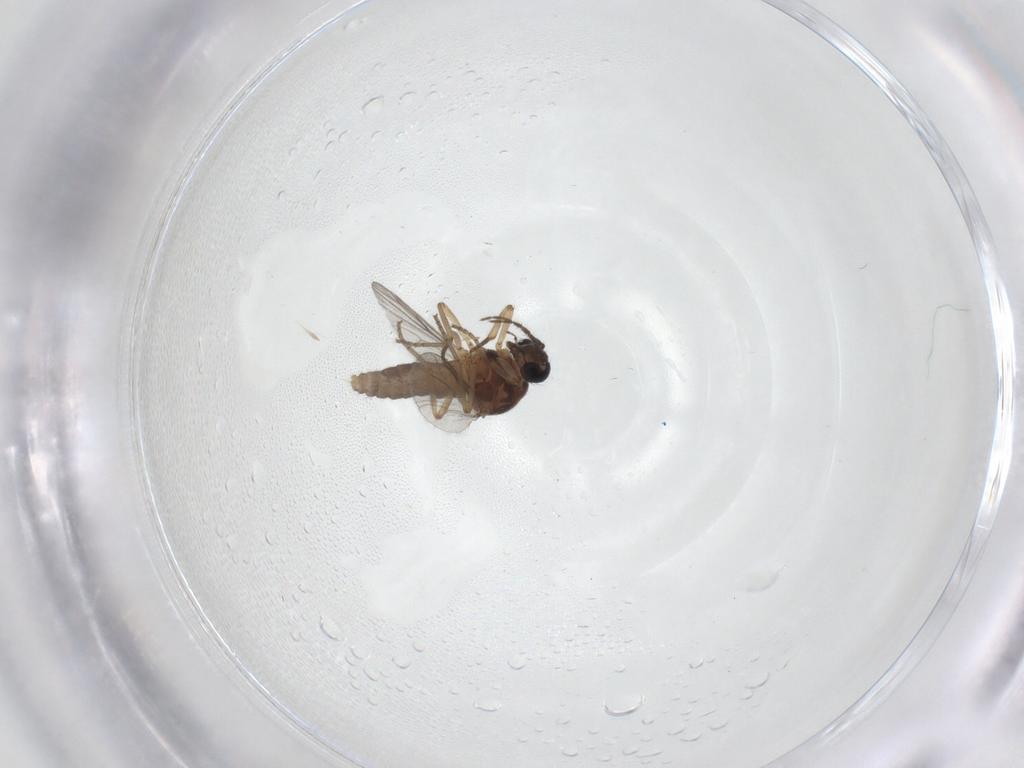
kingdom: Animalia
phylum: Arthropoda
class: Insecta
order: Diptera
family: Ceratopogonidae
